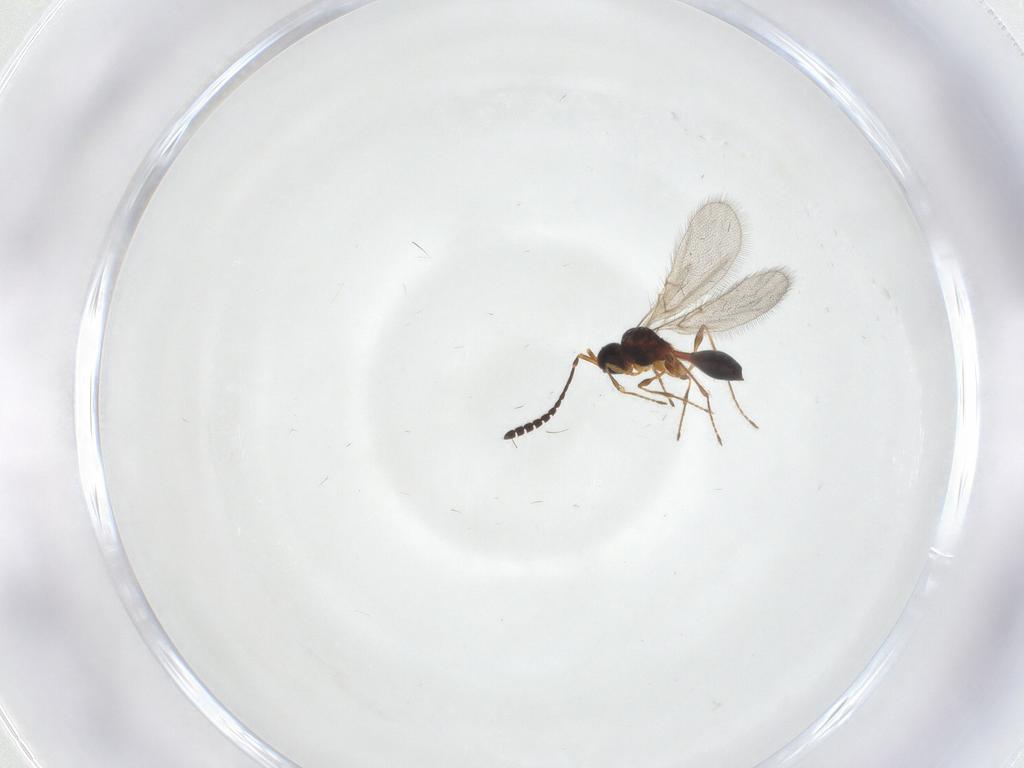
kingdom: Animalia
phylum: Arthropoda
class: Insecta
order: Hymenoptera
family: Diapriidae
